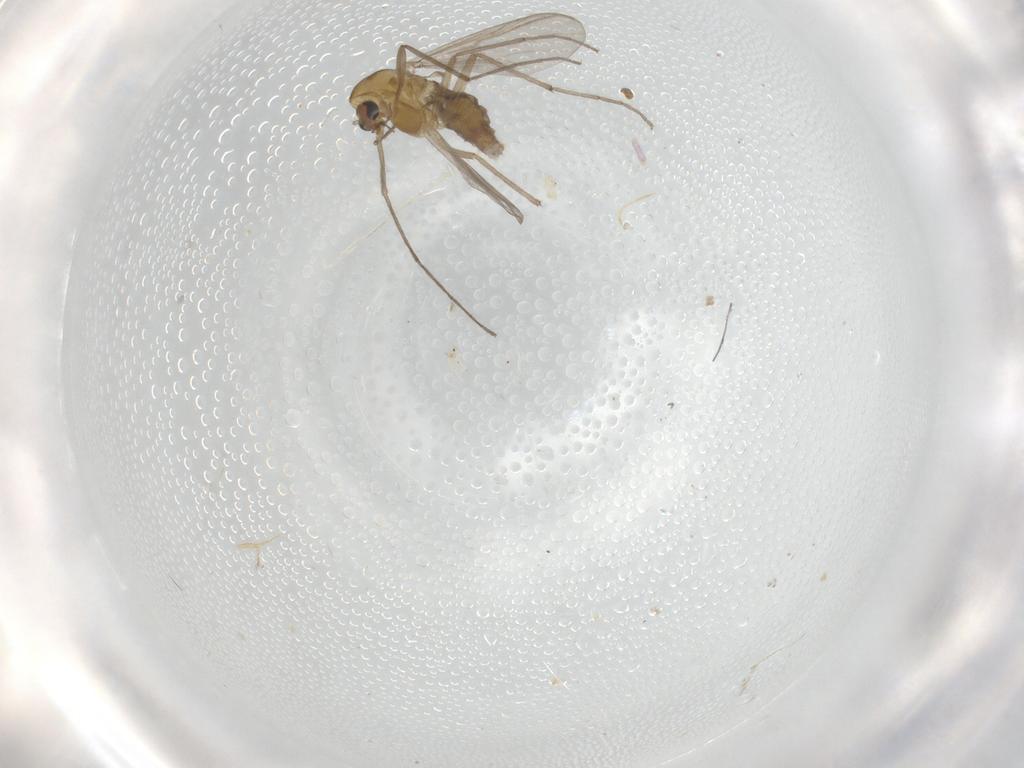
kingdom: Animalia
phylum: Arthropoda
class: Insecta
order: Diptera
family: Chironomidae
